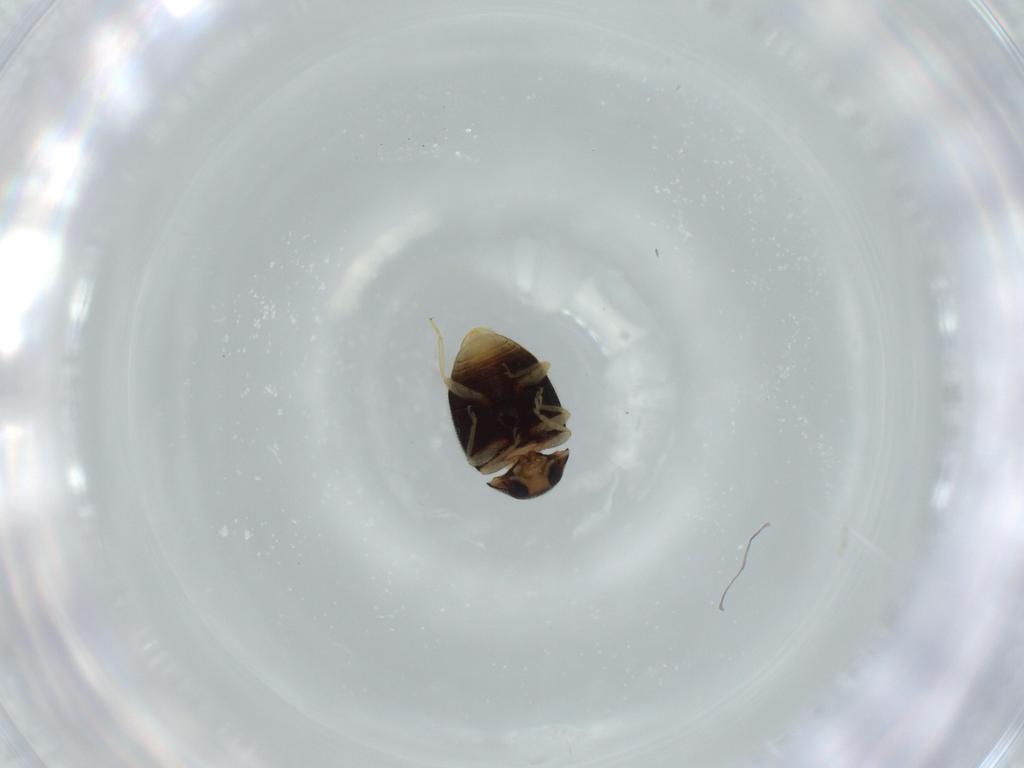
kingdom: Animalia
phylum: Arthropoda
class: Insecta
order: Coleoptera
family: Coccinellidae
